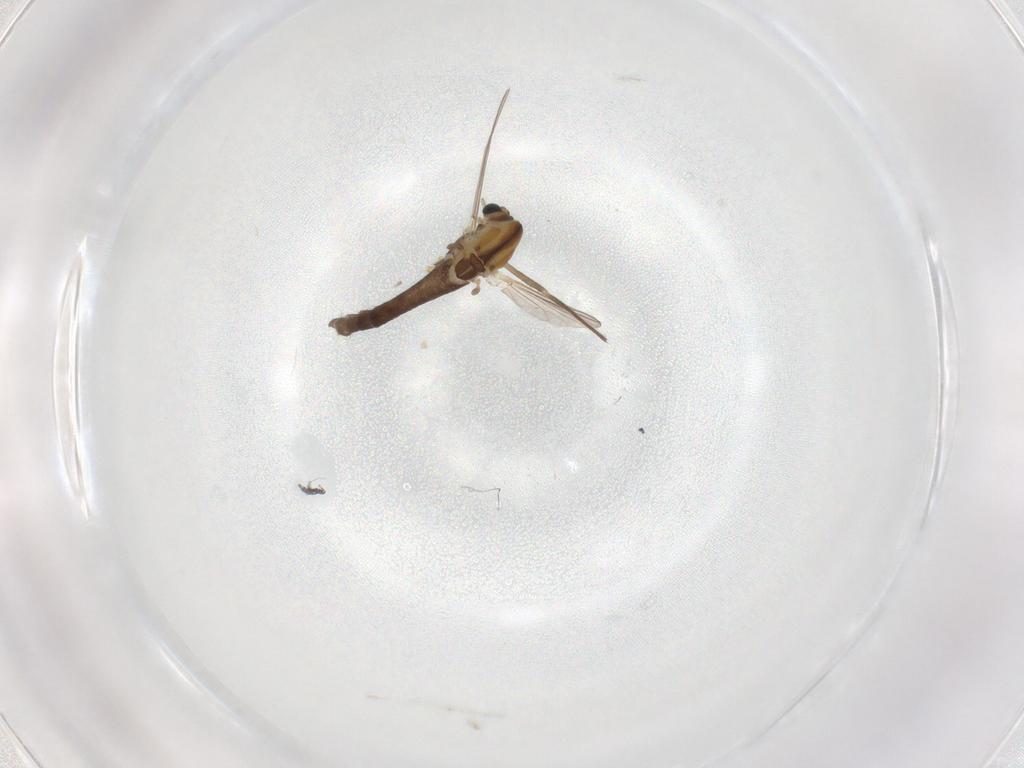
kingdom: Animalia
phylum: Arthropoda
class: Insecta
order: Diptera
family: Chironomidae
